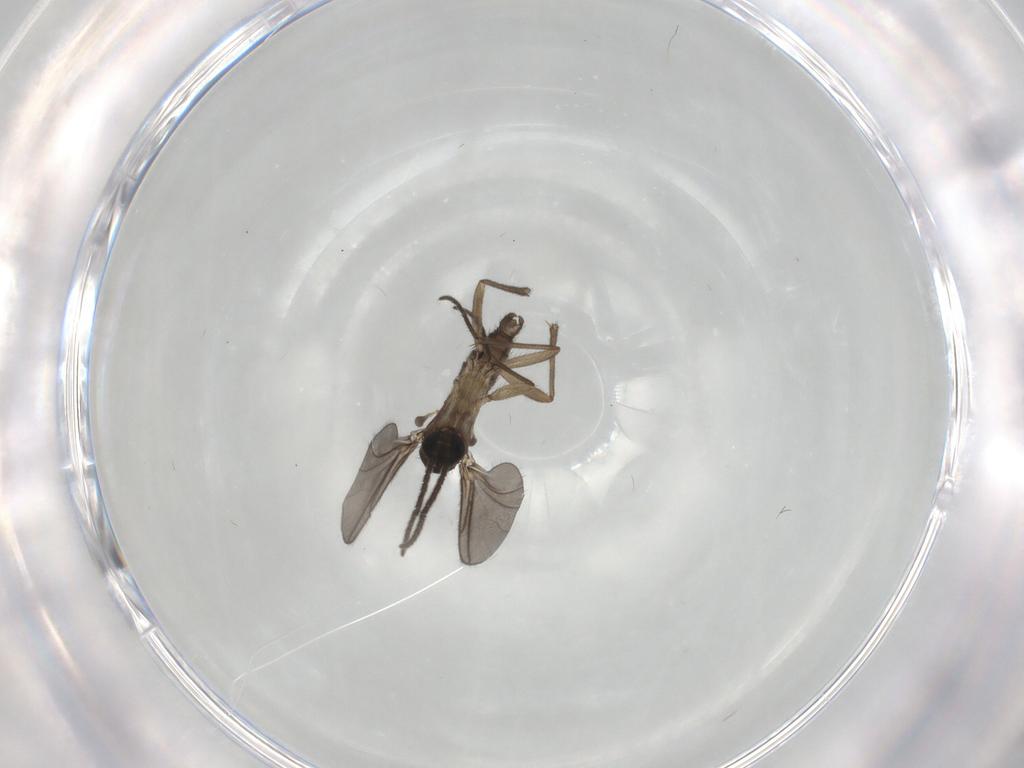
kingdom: Animalia
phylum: Arthropoda
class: Insecta
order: Diptera
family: Sciaridae
